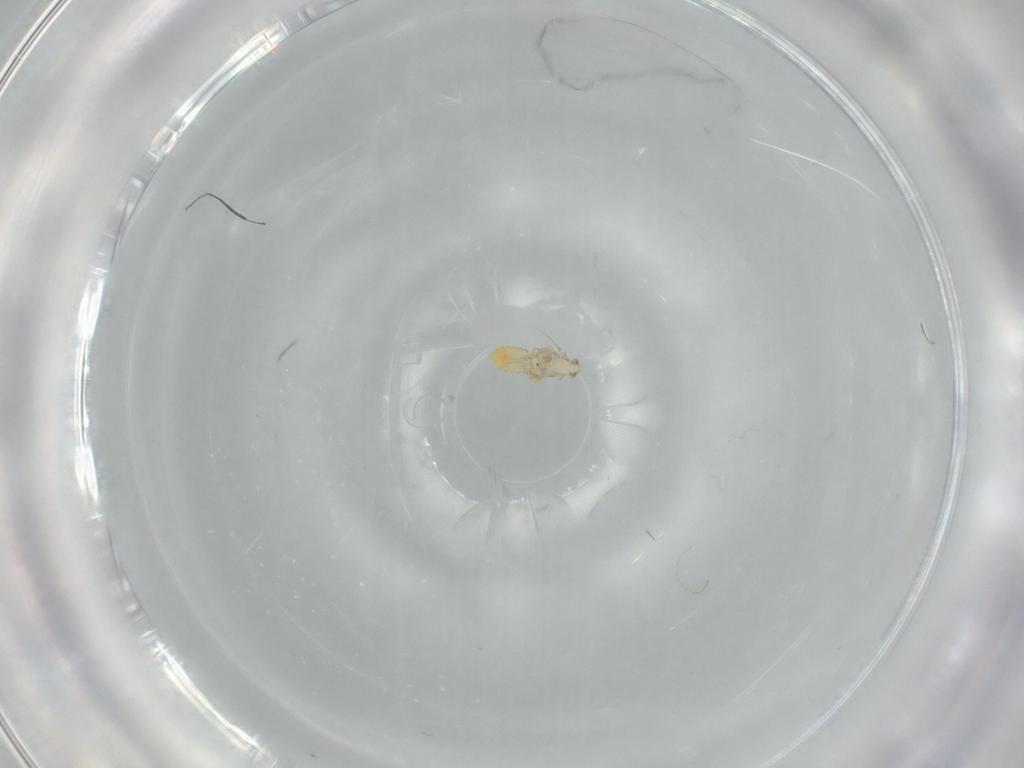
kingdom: Animalia
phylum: Arthropoda
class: Insecta
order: Hemiptera
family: Delphacidae
